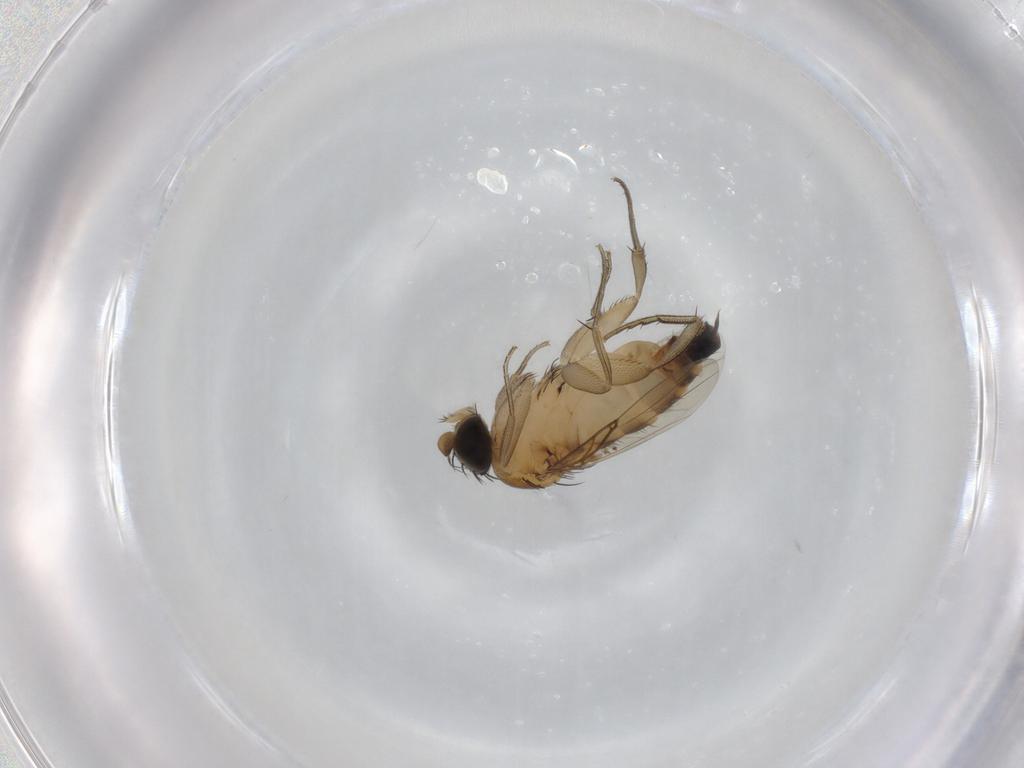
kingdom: Animalia
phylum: Arthropoda
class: Insecta
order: Diptera
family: Phoridae
